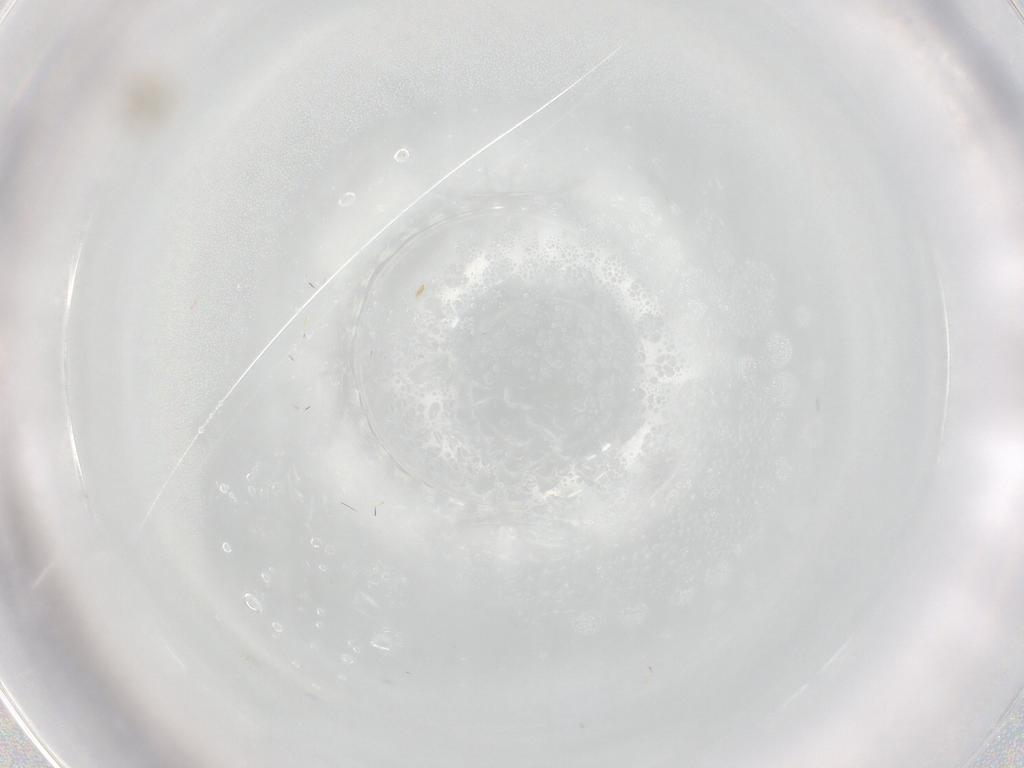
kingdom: Animalia
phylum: Arthropoda
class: Insecta
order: Diptera
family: Cecidomyiidae
